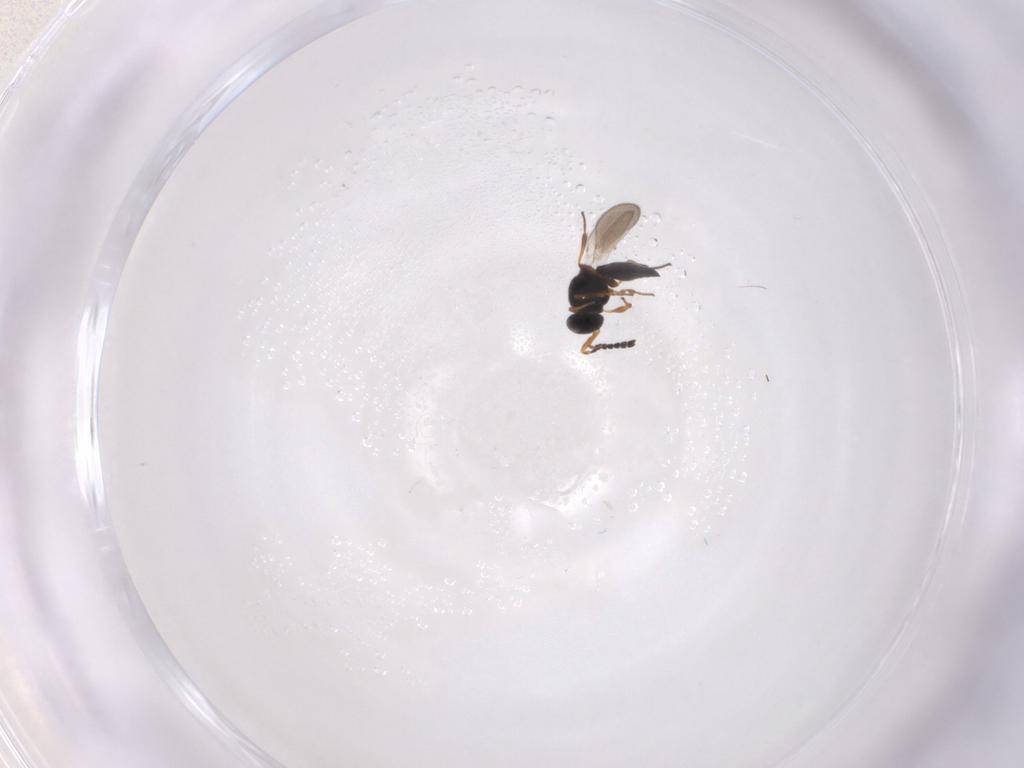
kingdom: Animalia
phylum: Arthropoda
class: Insecta
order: Hymenoptera
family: Platygastridae
